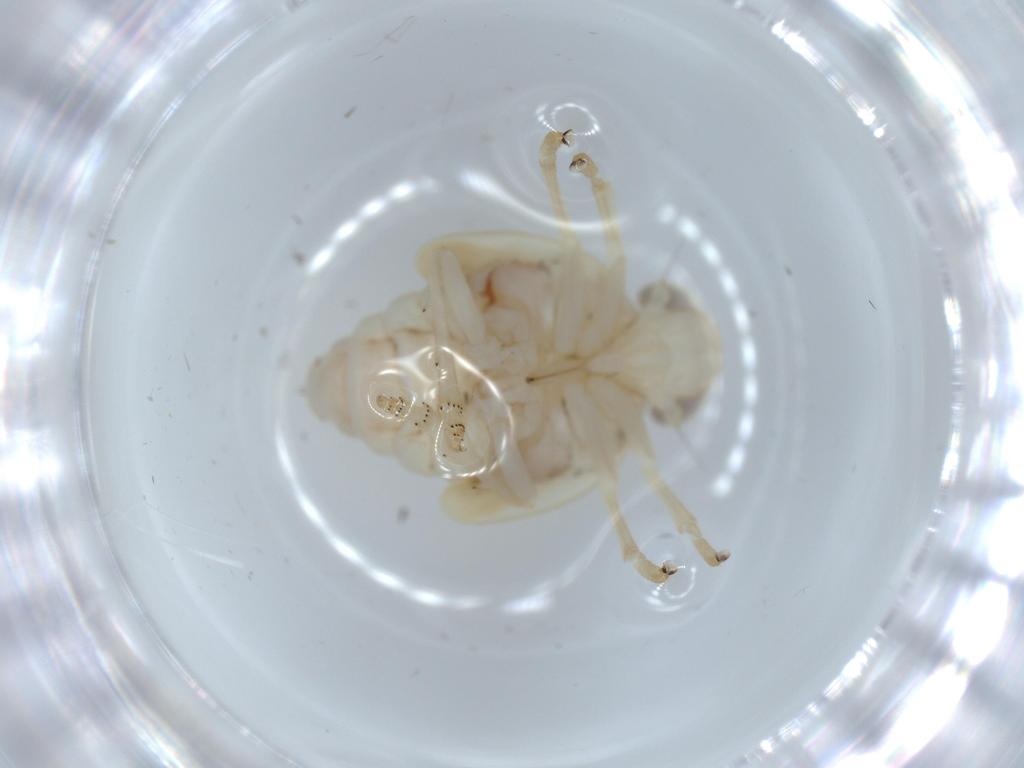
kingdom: Animalia
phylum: Arthropoda
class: Insecta
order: Hemiptera
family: Nogodinidae
